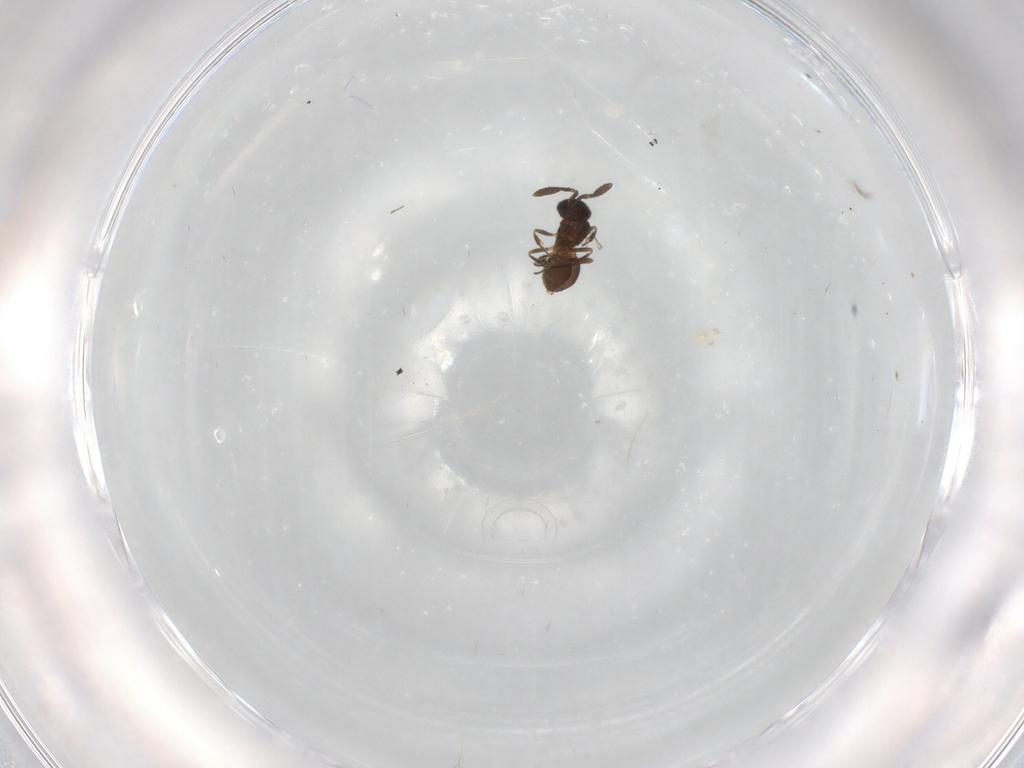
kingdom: Animalia
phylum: Arthropoda
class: Insecta
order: Hymenoptera
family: Scelionidae
